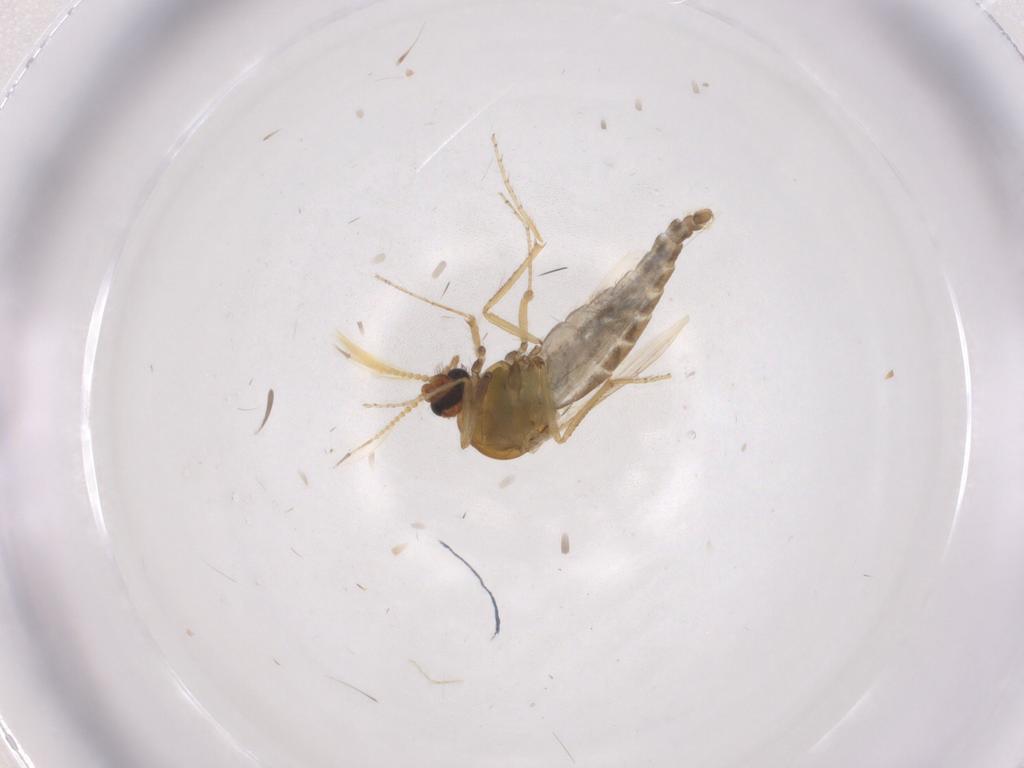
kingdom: Animalia
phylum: Arthropoda
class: Insecta
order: Diptera
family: Ceratopogonidae
